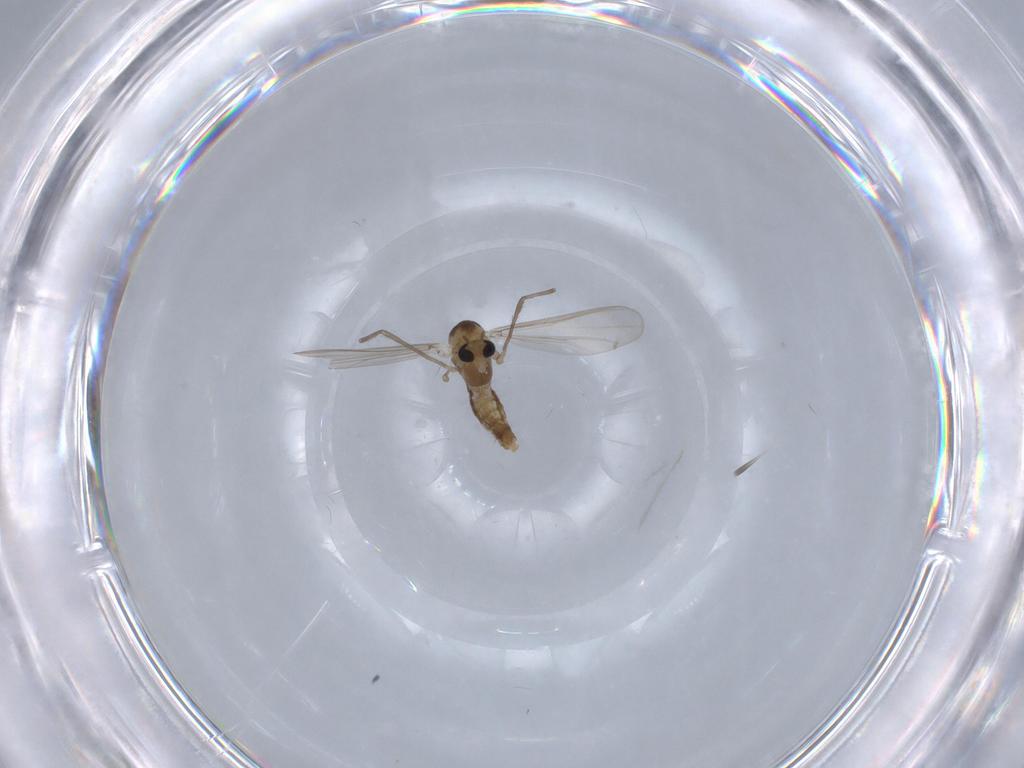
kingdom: Animalia
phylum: Arthropoda
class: Insecta
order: Diptera
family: Chironomidae
